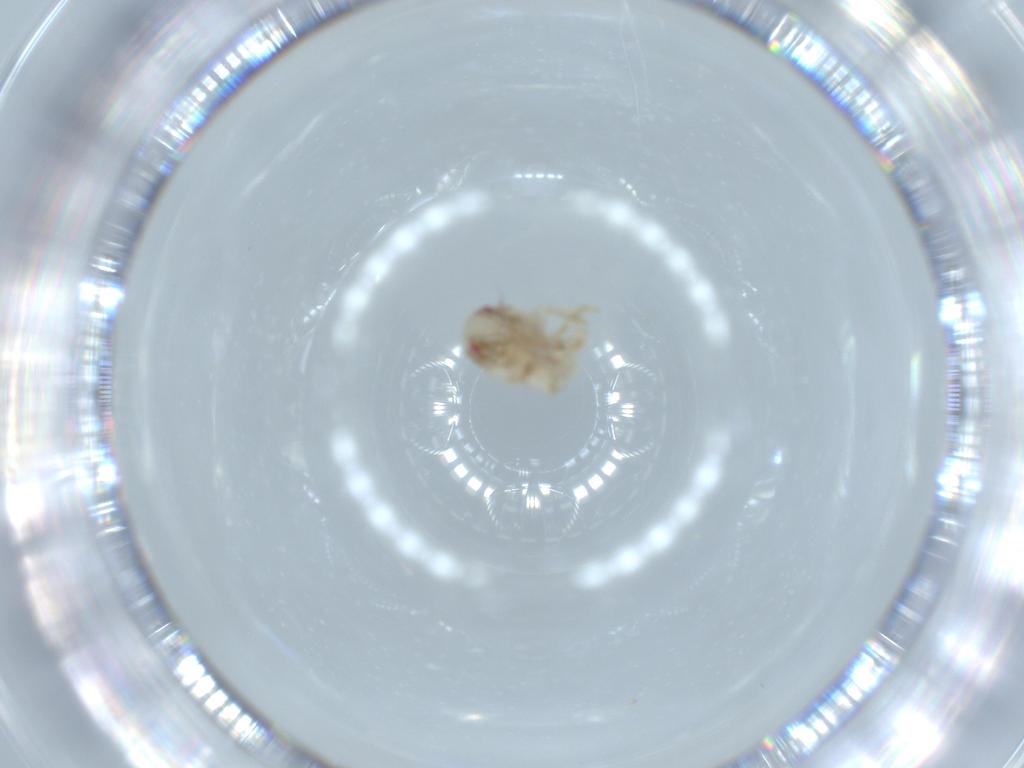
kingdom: Animalia
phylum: Arthropoda
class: Insecta
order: Hemiptera
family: Acanaloniidae
